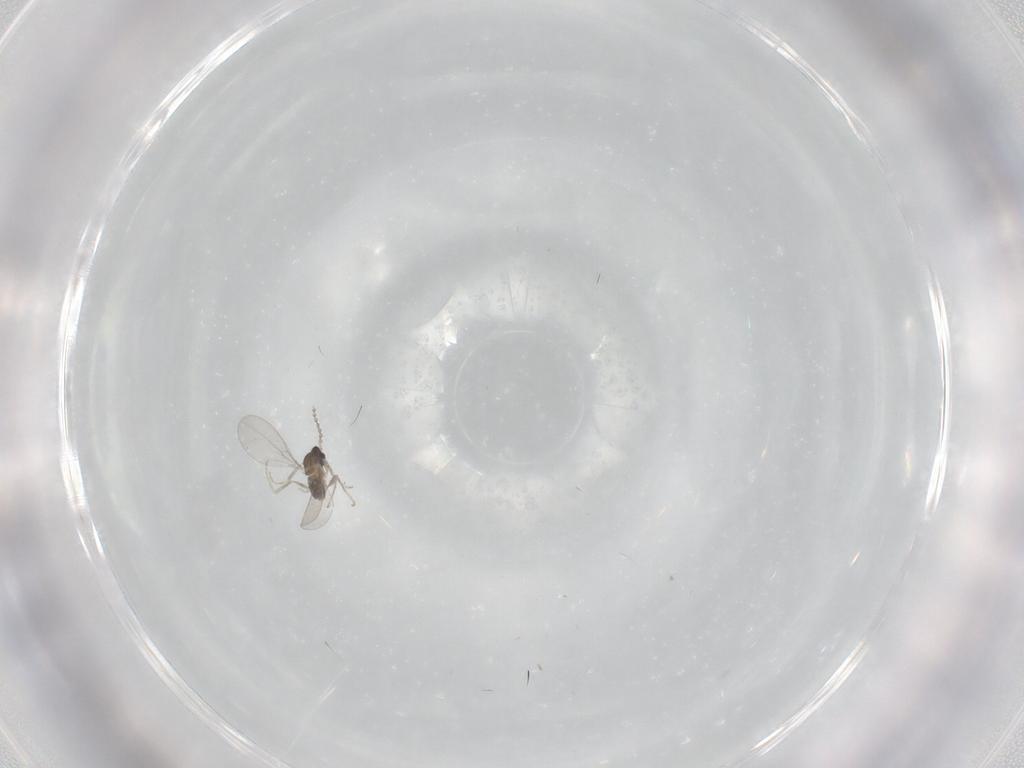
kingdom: Animalia
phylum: Arthropoda
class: Insecta
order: Diptera
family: Cecidomyiidae
